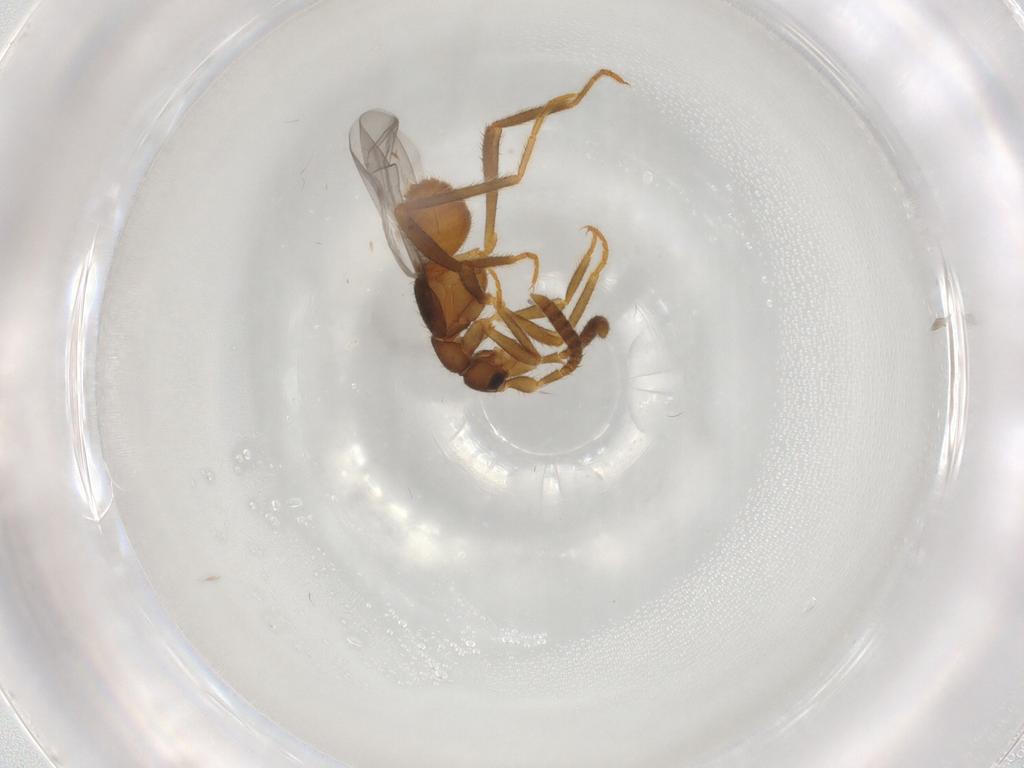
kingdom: Animalia
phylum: Arthropoda
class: Insecta
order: Coleoptera
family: Staphylinidae
